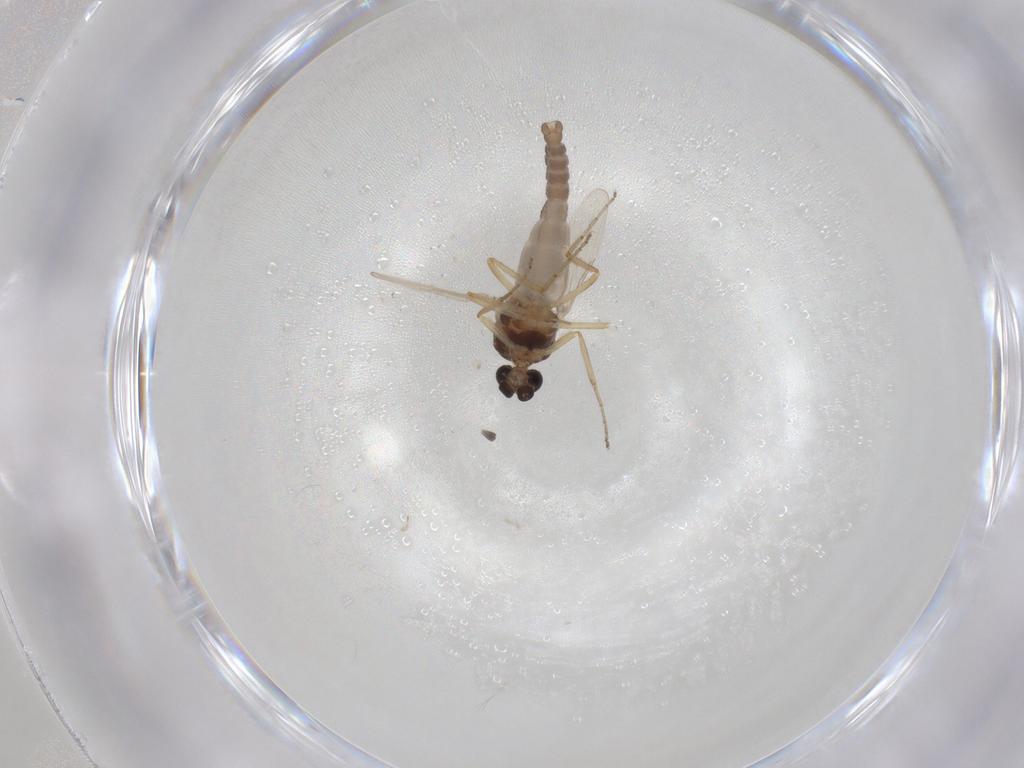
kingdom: Animalia
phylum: Arthropoda
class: Insecta
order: Diptera
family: Ceratopogonidae
